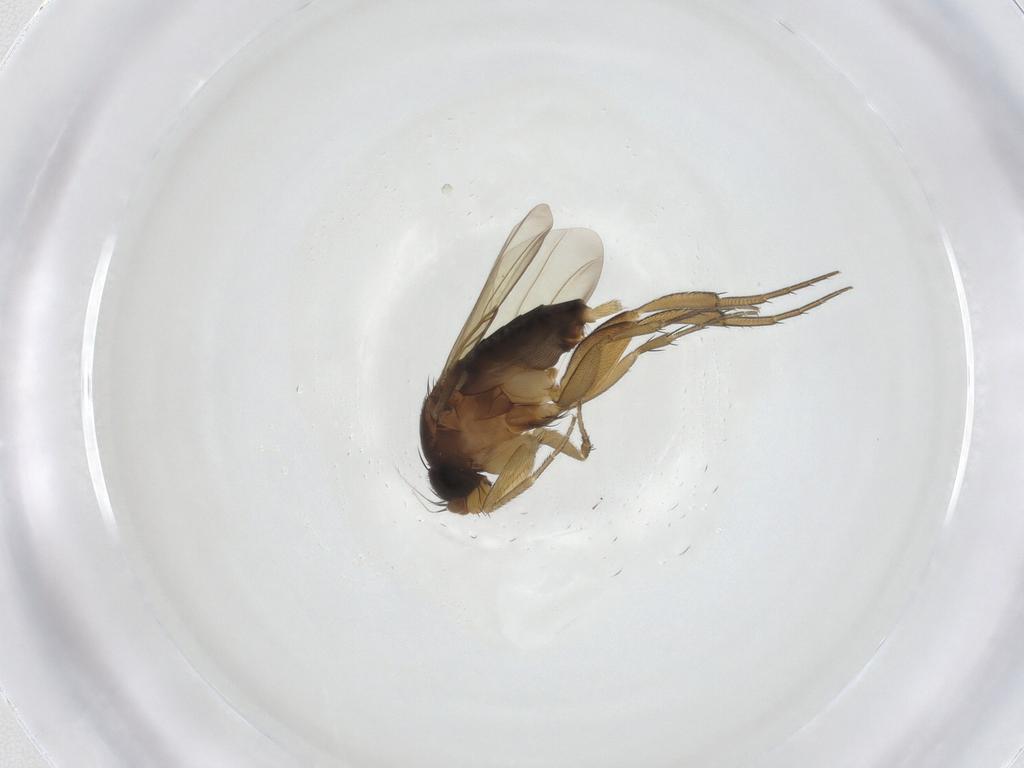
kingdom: Animalia
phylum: Arthropoda
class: Insecta
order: Diptera
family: Phoridae
